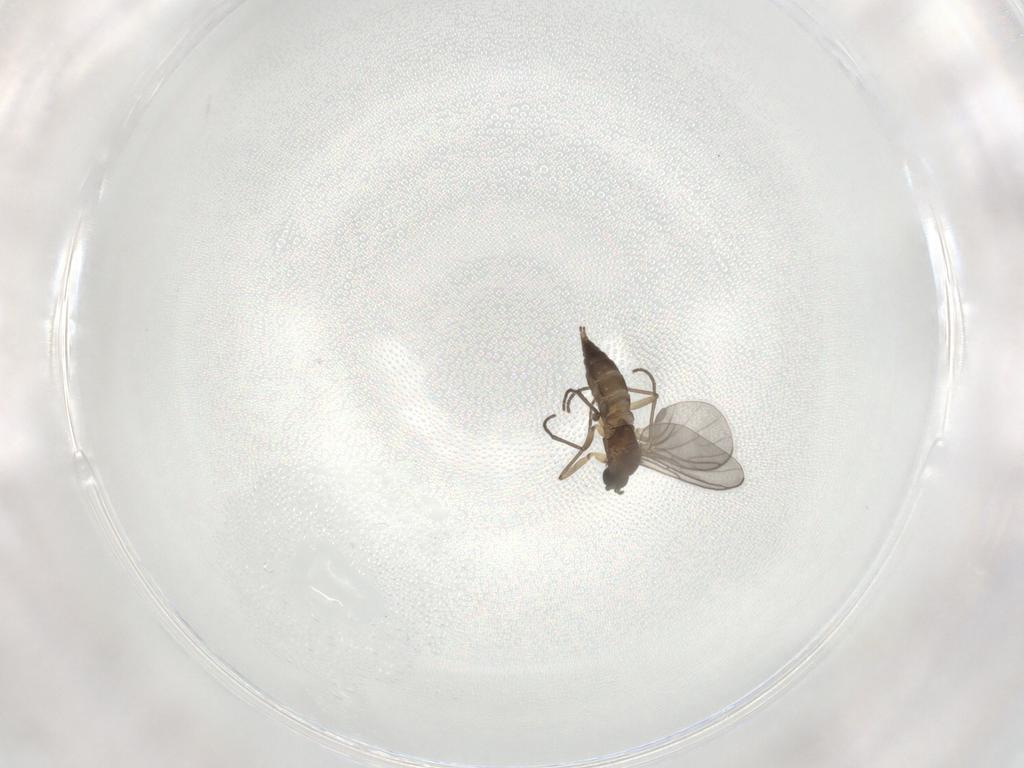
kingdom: Animalia
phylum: Arthropoda
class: Insecta
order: Diptera
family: Sciaridae
